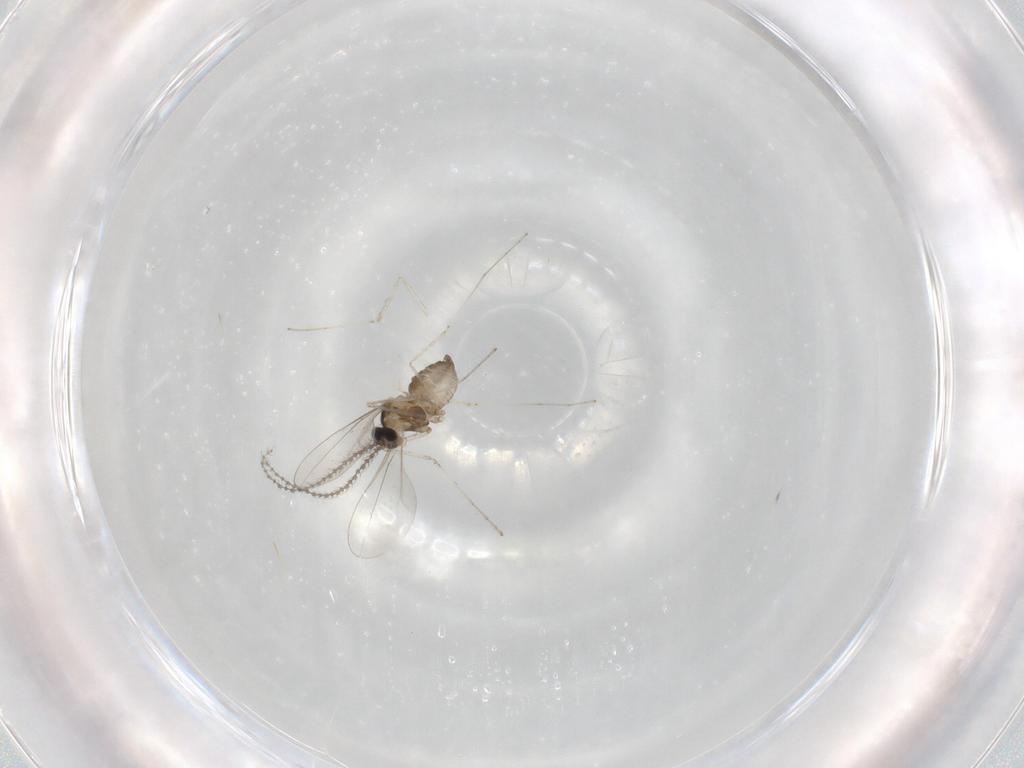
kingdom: Animalia
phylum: Arthropoda
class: Insecta
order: Diptera
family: Cecidomyiidae
